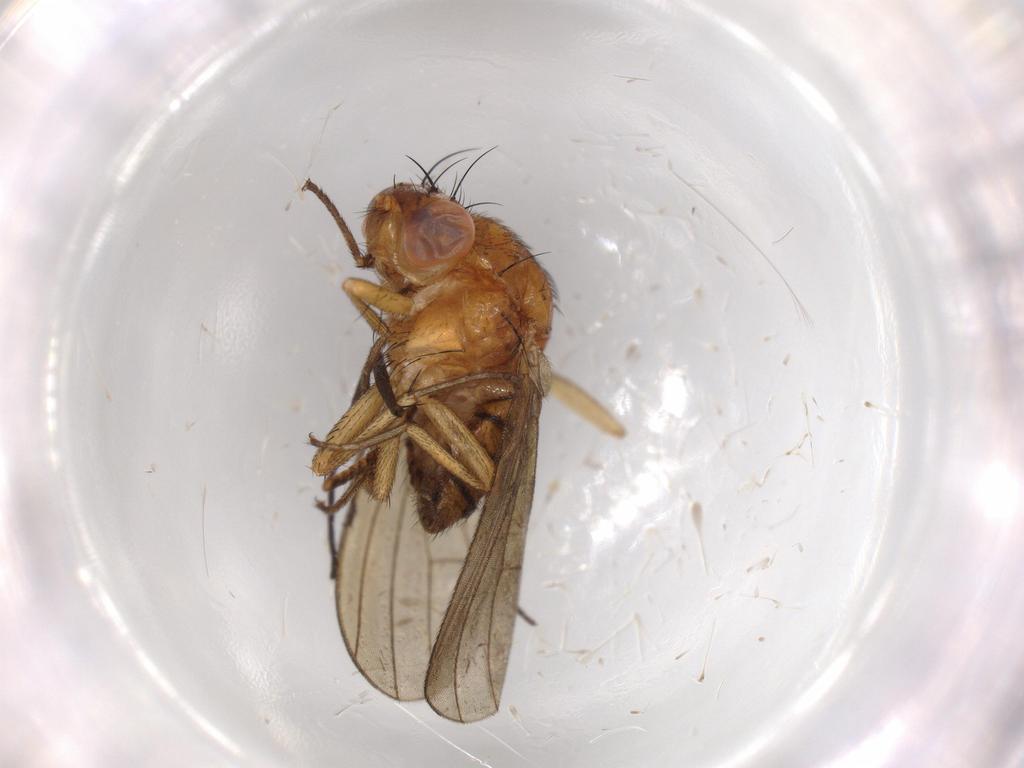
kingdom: Animalia
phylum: Arthropoda
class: Insecta
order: Diptera
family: Lauxaniidae
